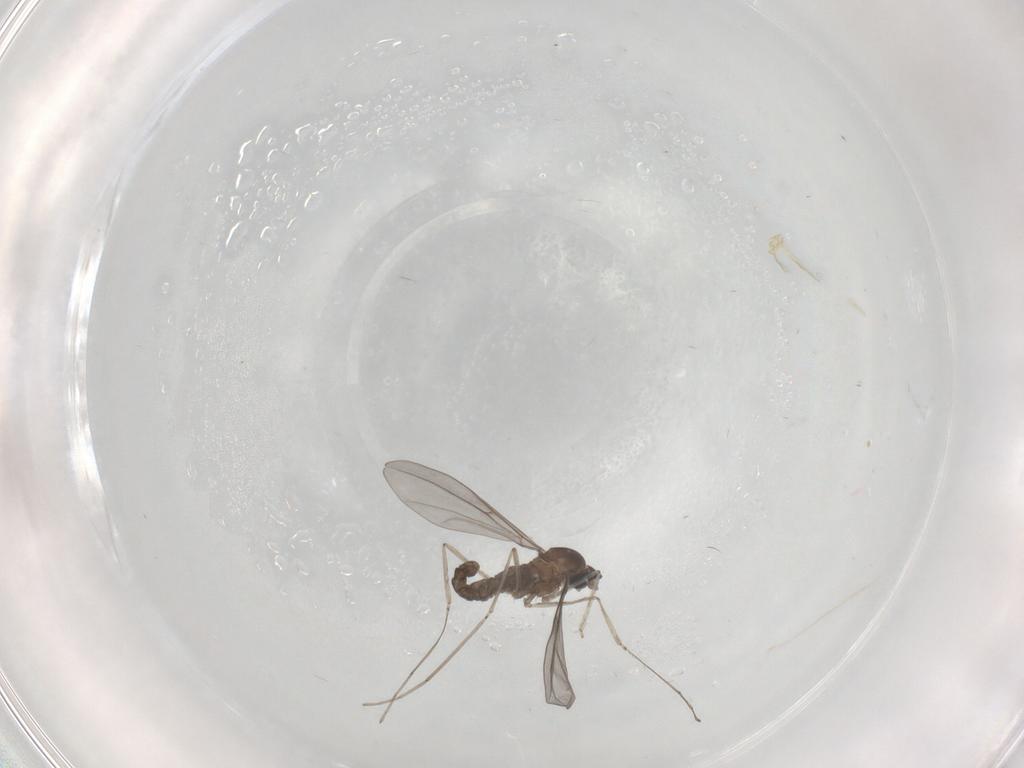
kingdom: Animalia
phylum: Arthropoda
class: Insecta
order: Diptera
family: Cecidomyiidae
